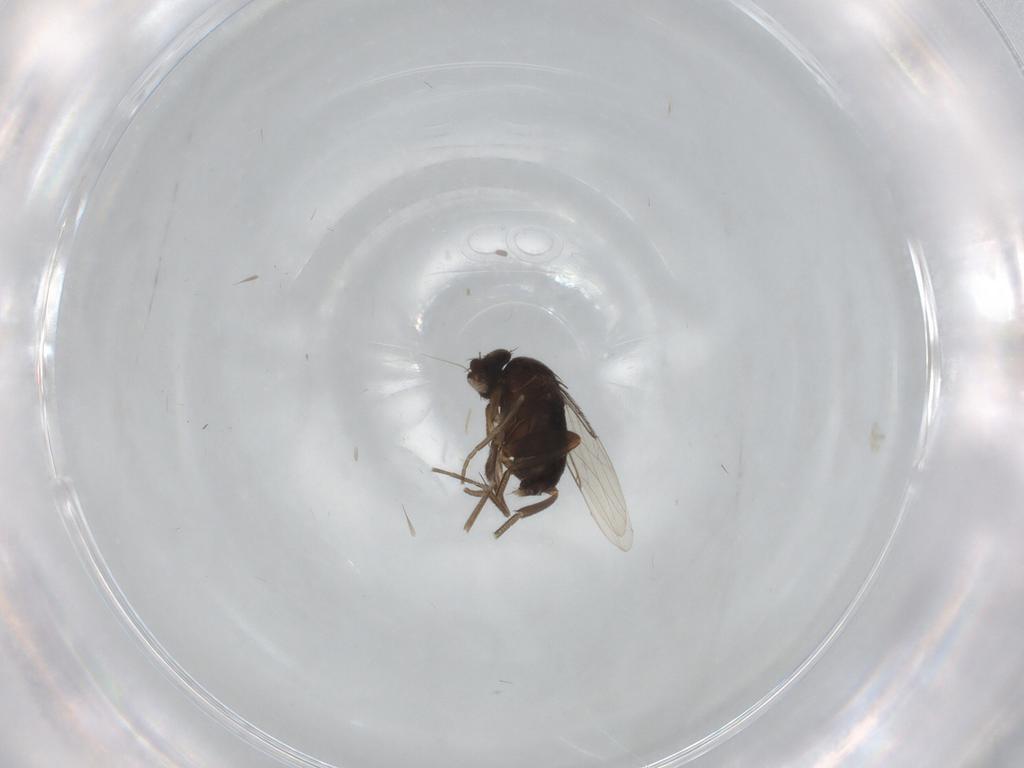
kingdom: Animalia
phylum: Arthropoda
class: Insecta
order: Diptera
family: Phoridae
